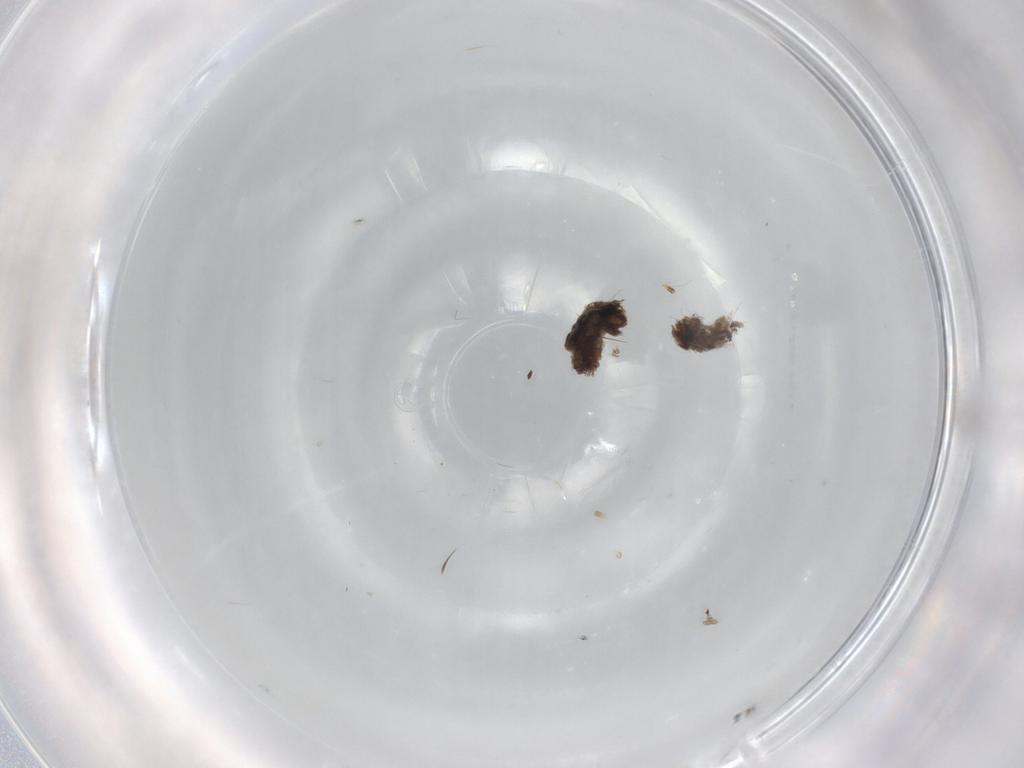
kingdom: Animalia
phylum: Arthropoda
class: Insecta
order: Diptera
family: Psychodidae
